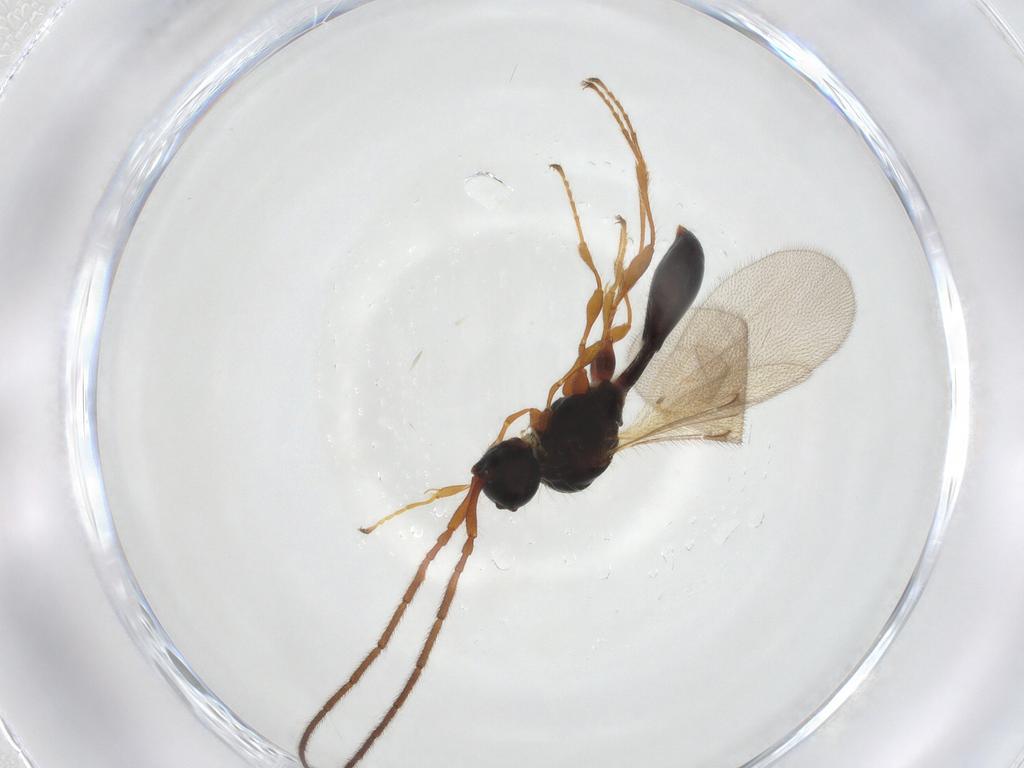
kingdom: Animalia
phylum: Arthropoda
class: Insecta
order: Hymenoptera
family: Diapriidae
